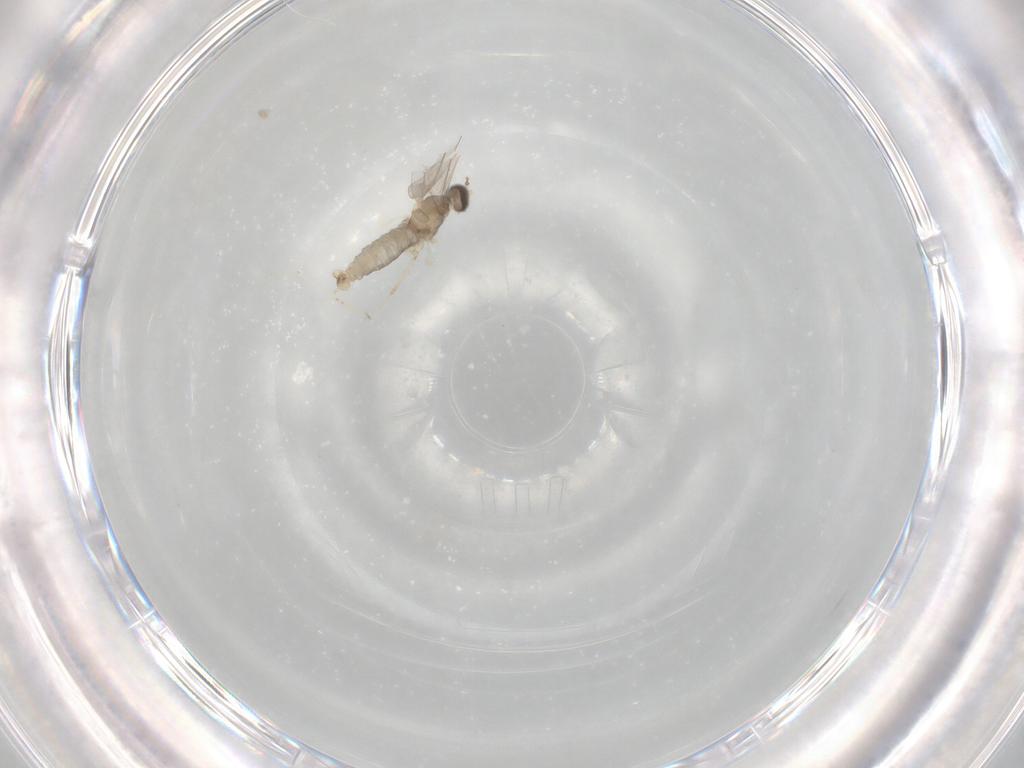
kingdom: Animalia
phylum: Arthropoda
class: Insecta
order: Diptera
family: Cecidomyiidae
